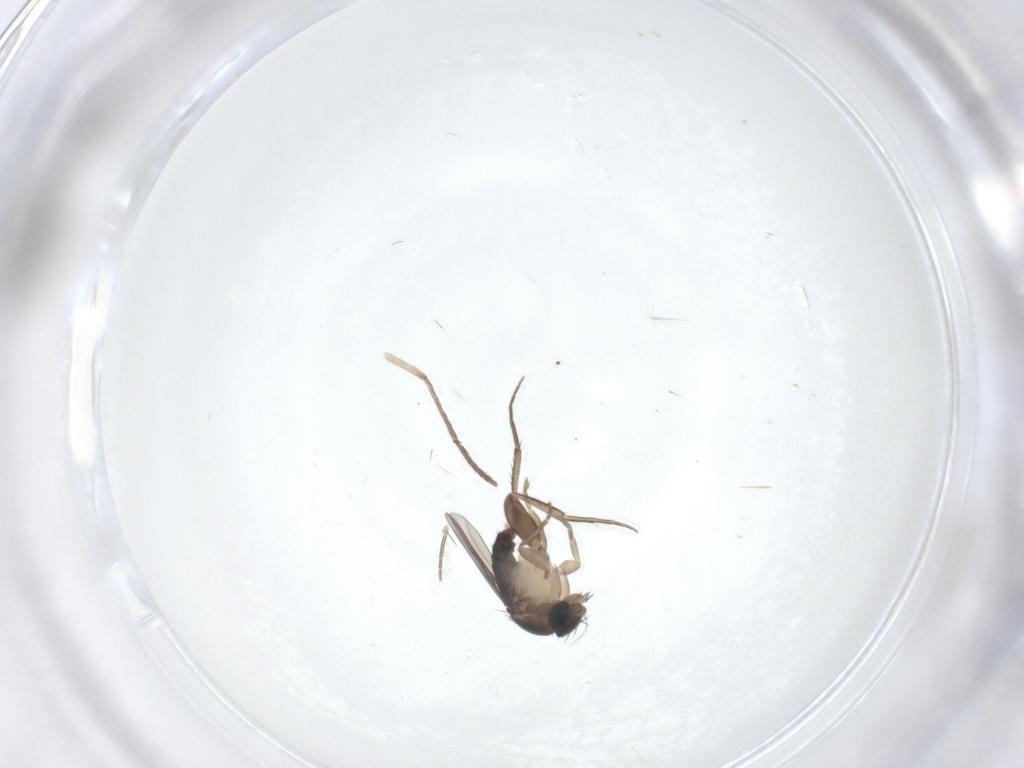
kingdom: Animalia
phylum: Arthropoda
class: Insecta
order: Diptera
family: Phoridae
